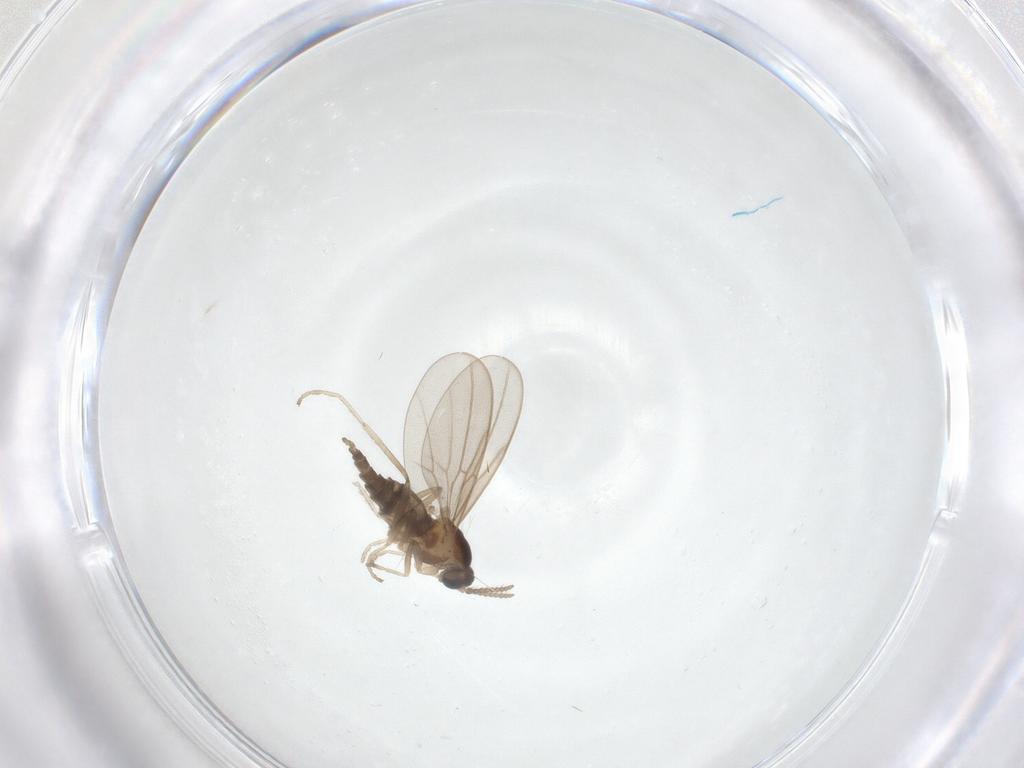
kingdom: Animalia
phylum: Arthropoda
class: Insecta
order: Diptera
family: Cecidomyiidae
